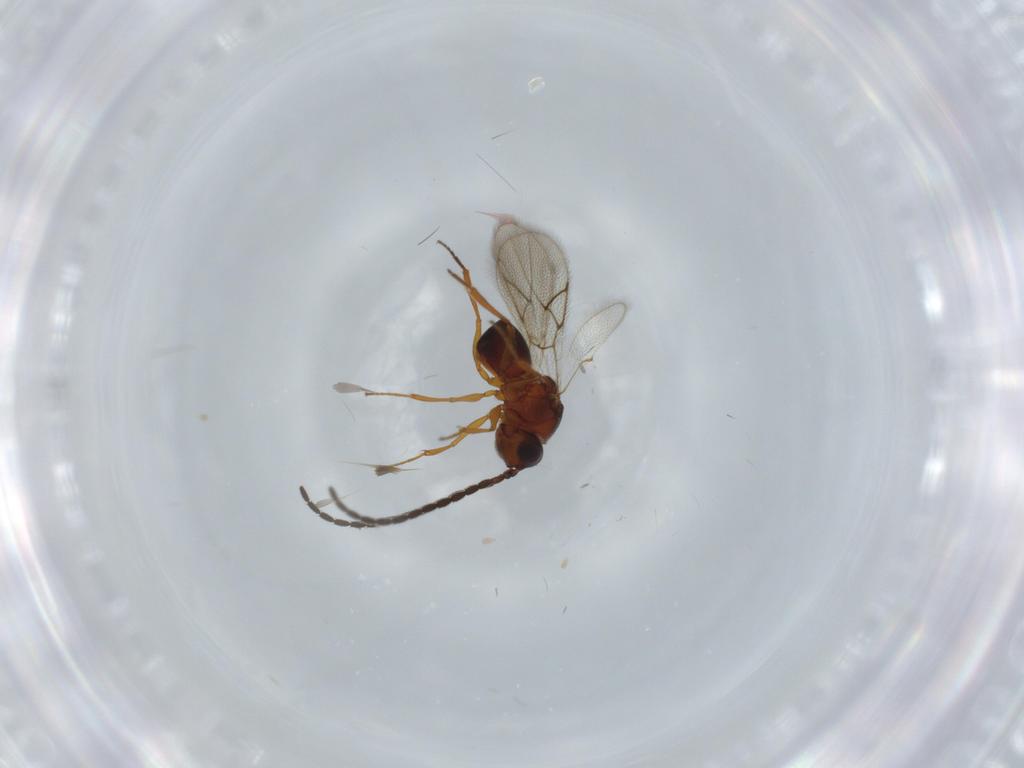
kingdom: Animalia
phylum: Arthropoda
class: Insecta
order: Hymenoptera
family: Figitidae
